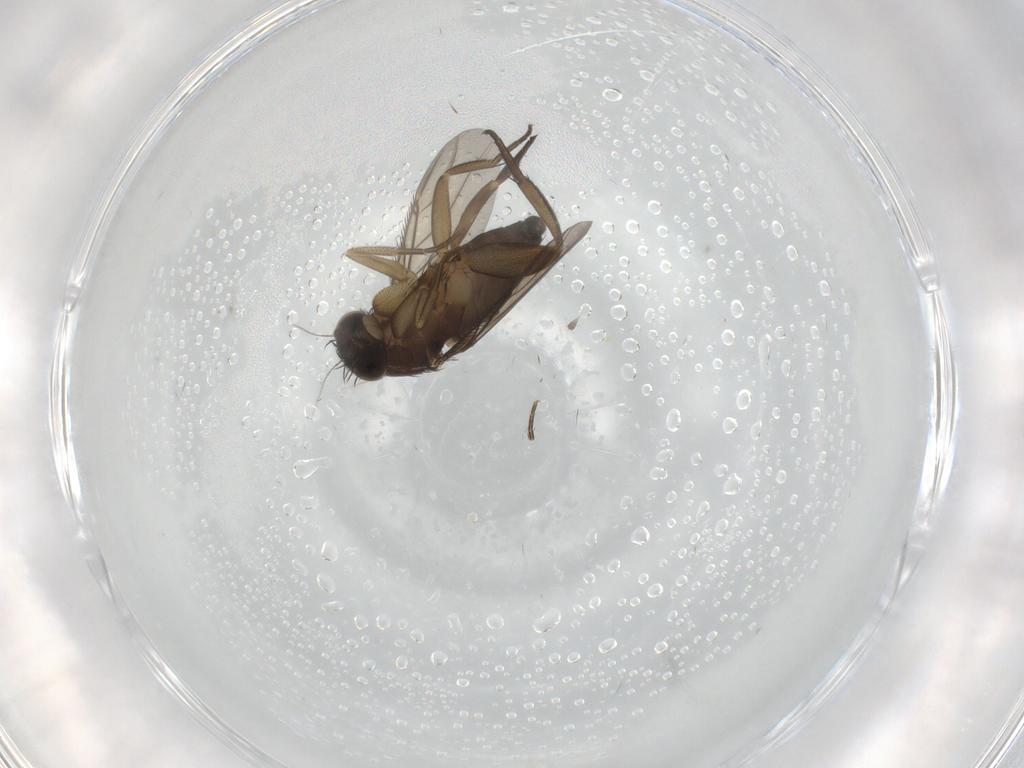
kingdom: Animalia
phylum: Arthropoda
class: Insecta
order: Diptera
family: Phoridae
